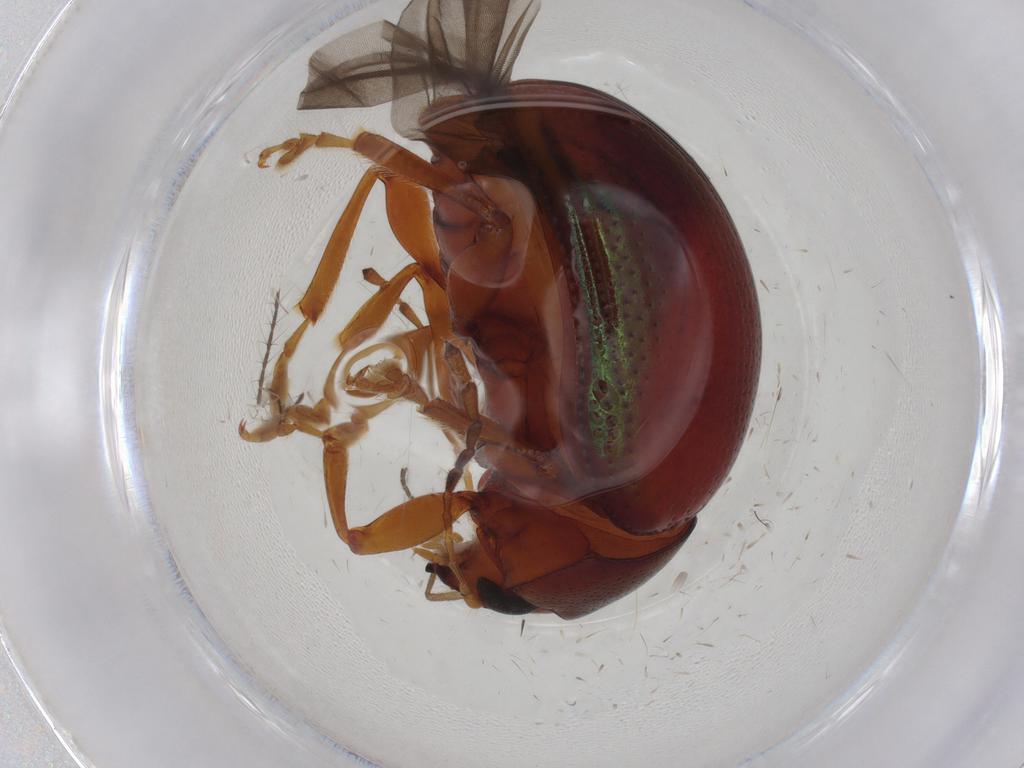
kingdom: Animalia
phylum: Arthropoda
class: Insecta
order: Coleoptera
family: Chrysomelidae
